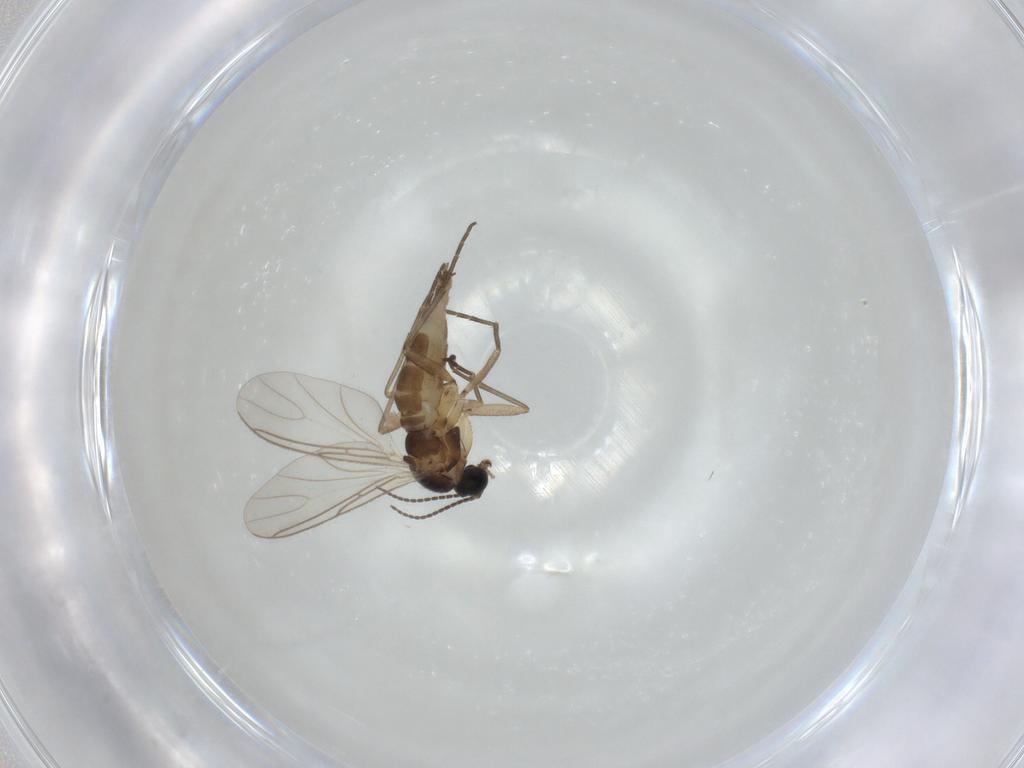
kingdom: Animalia
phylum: Arthropoda
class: Insecta
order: Diptera
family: Sciaridae
